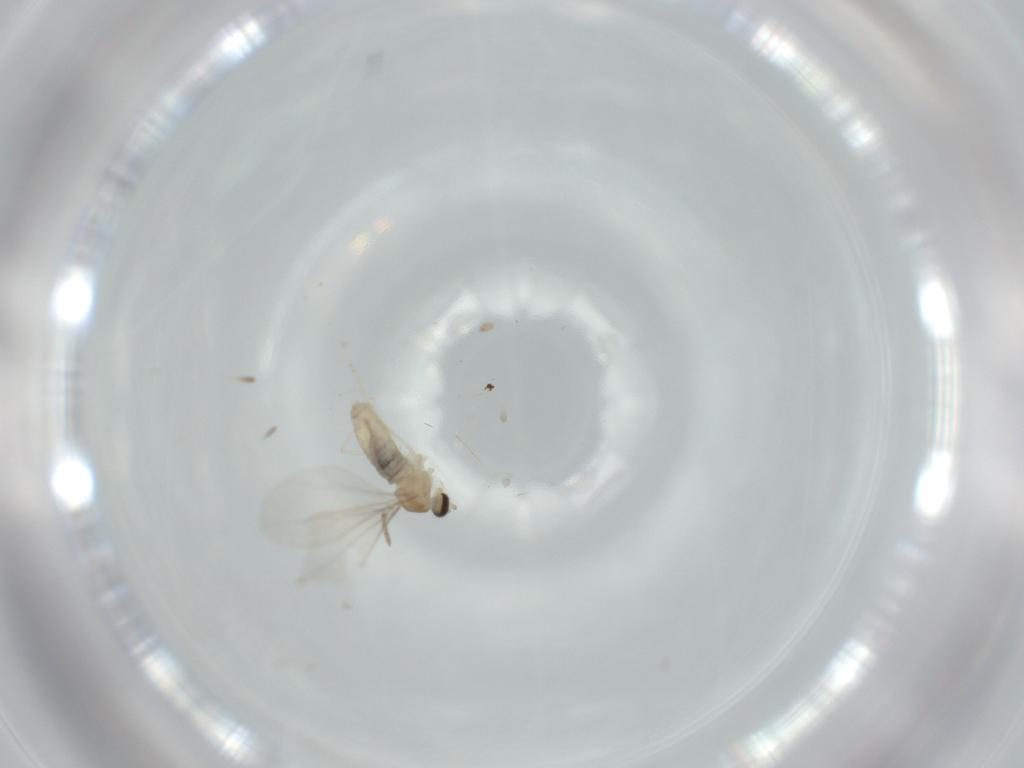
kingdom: Animalia
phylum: Arthropoda
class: Insecta
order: Diptera
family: Cecidomyiidae
